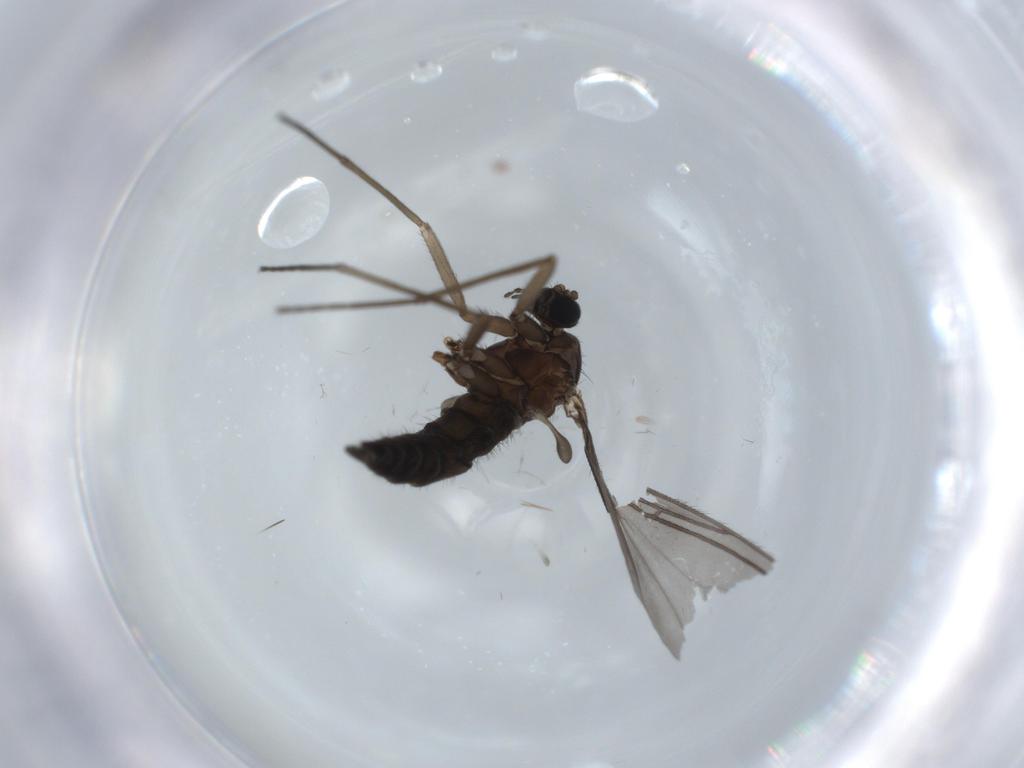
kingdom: Animalia
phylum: Arthropoda
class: Insecta
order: Diptera
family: Sciaridae
